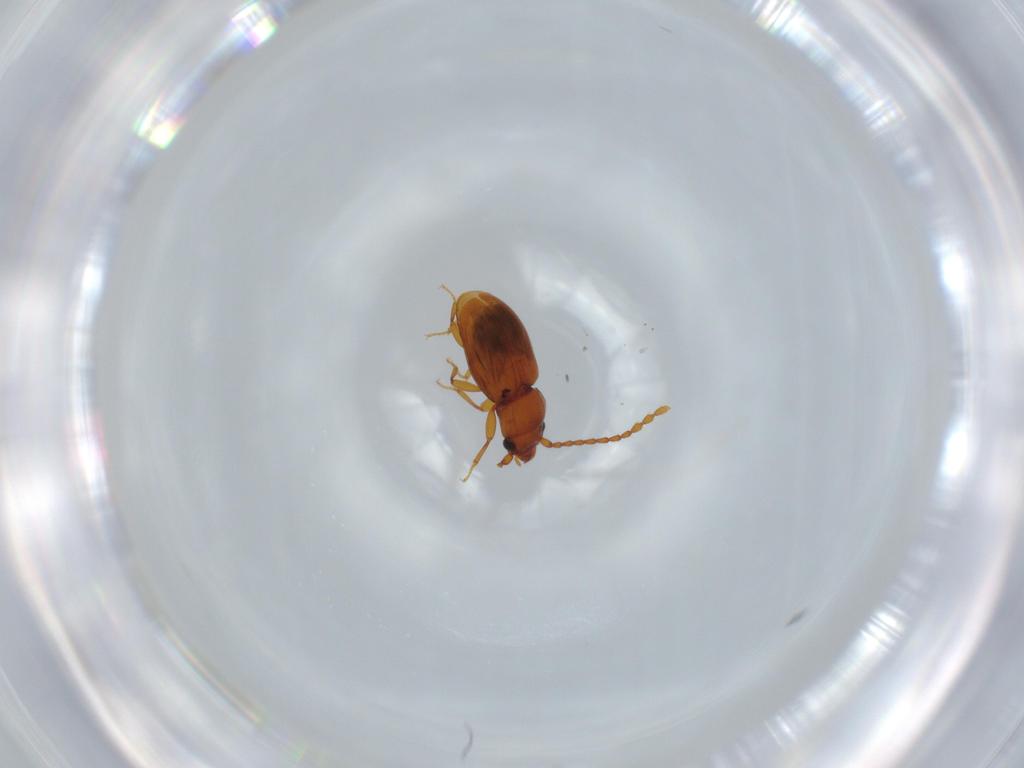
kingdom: Animalia
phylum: Arthropoda
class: Insecta
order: Coleoptera
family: Laemophloeidae
